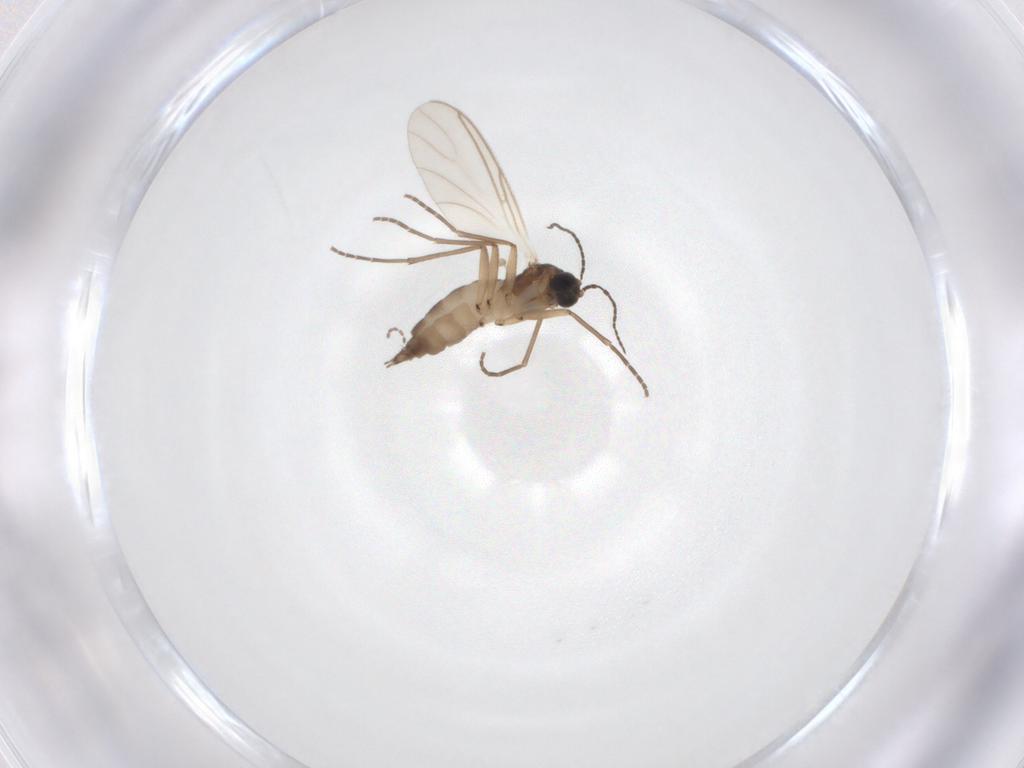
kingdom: Animalia
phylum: Arthropoda
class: Insecta
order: Diptera
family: Sciaridae
